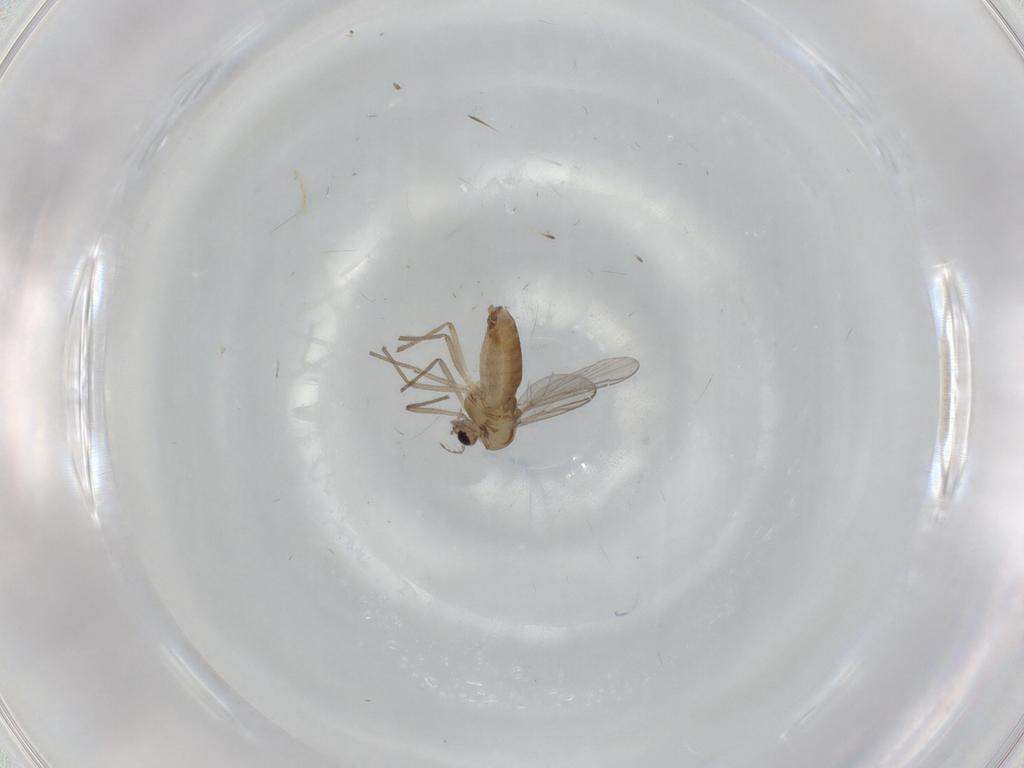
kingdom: Animalia
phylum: Arthropoda
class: Insecta
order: Diptera
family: Chironomidae
